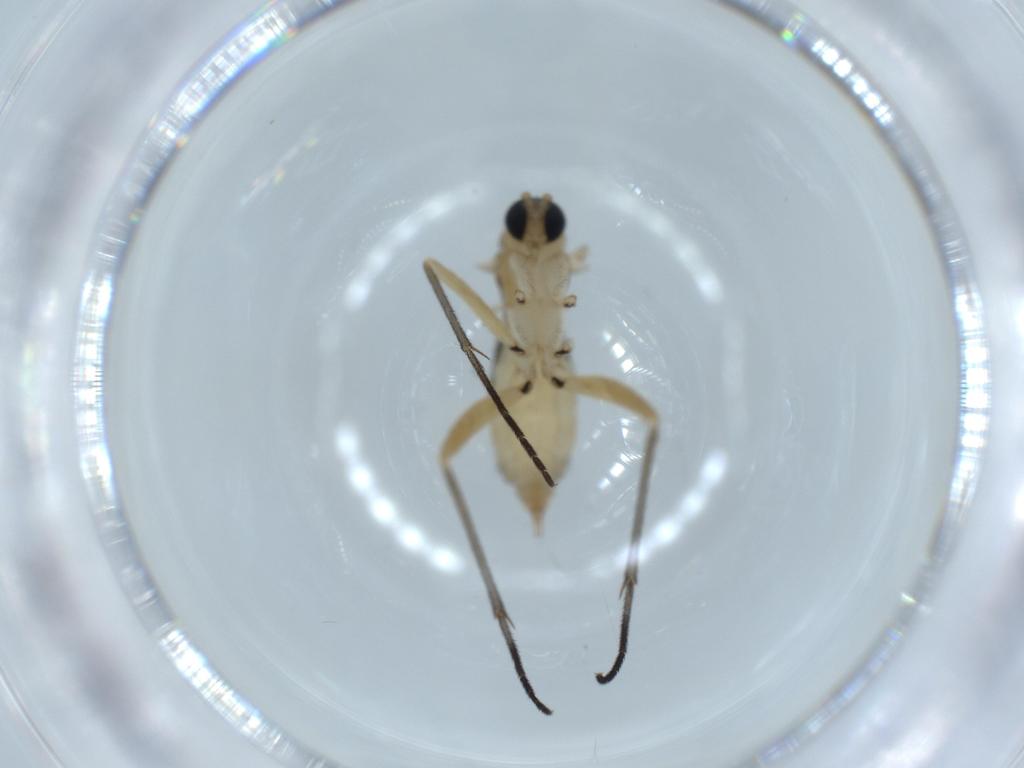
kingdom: Animalia
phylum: Arthropoda
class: Insecta
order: Diptera
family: Sciaridae
